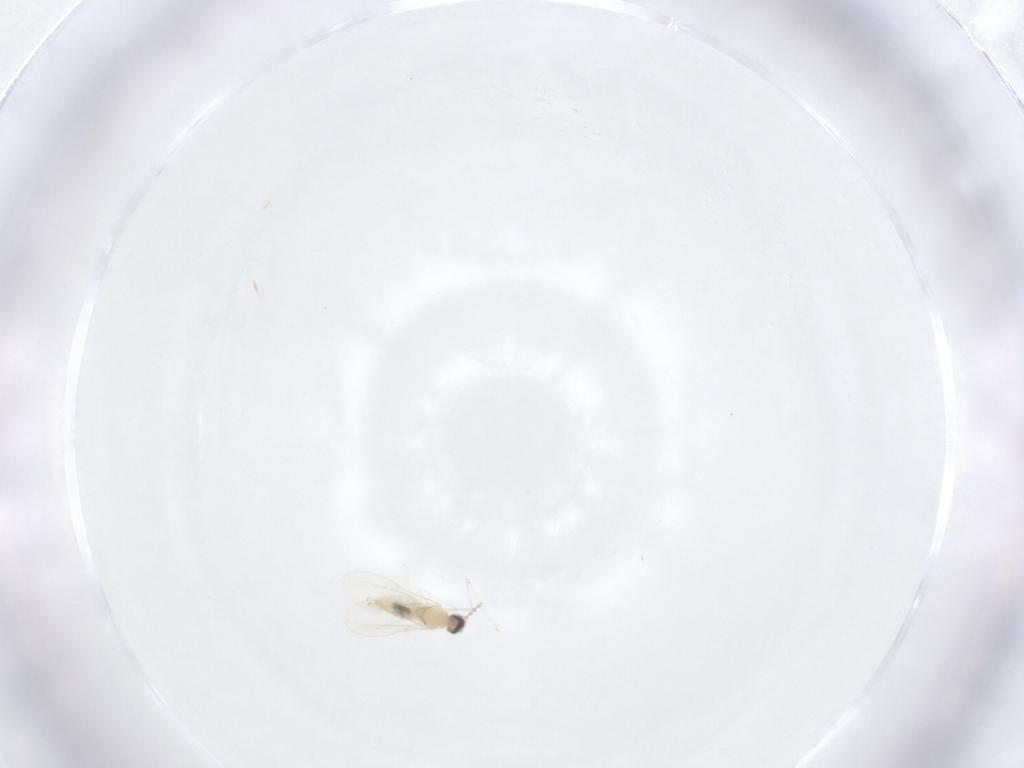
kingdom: Animalia
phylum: Arthropoda
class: Insecta
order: Diptera
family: Cecidomyiidae
